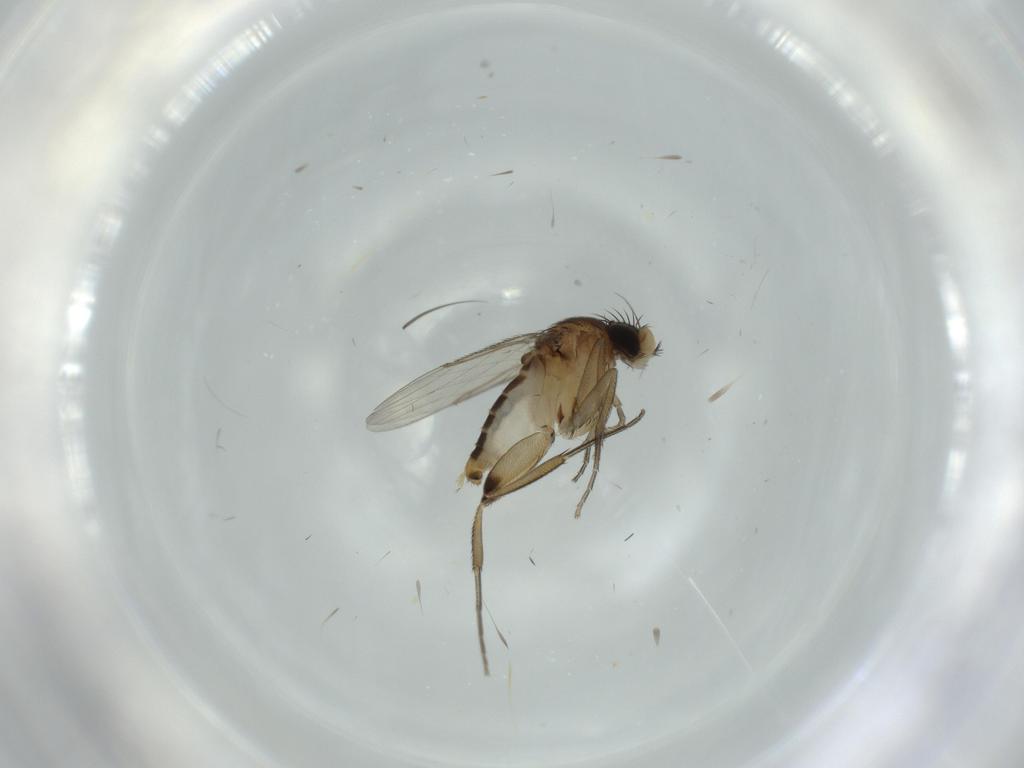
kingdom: Animalia
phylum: Arthropoda
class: Insecta
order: Diptera
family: Phoridae
